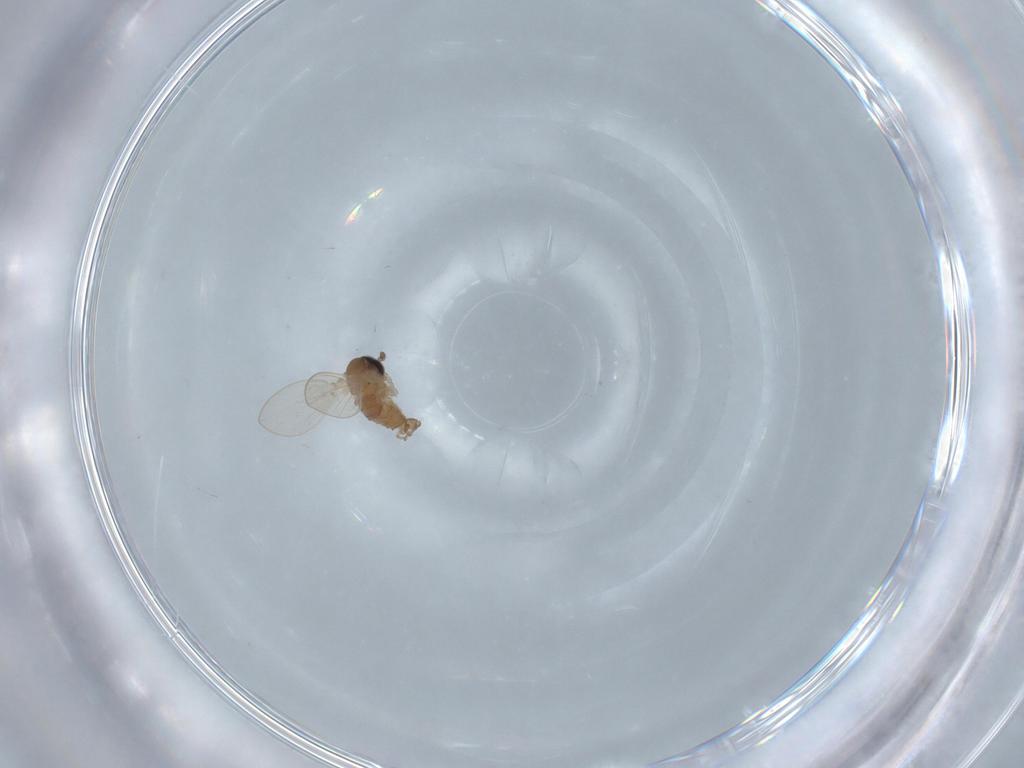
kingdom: Animalia
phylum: Arthropoda
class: Insecta
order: Diptera
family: Psychodidae
